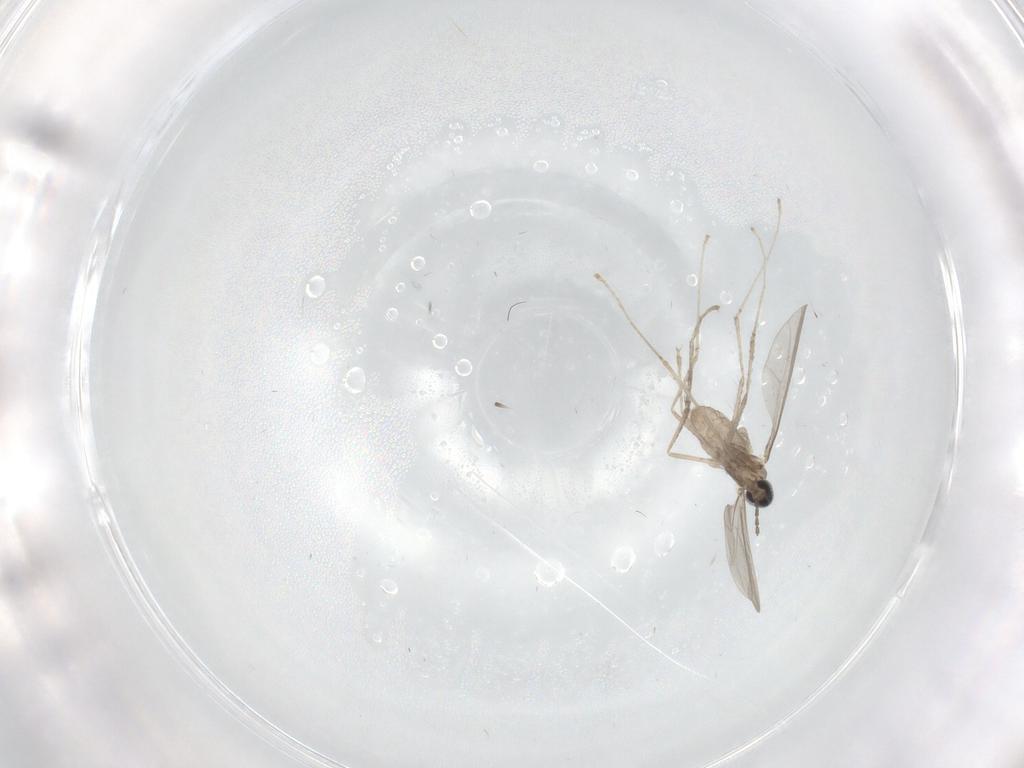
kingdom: Animalia
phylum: Arthropoda
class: Insecta
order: Diptera
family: Psychodidae
